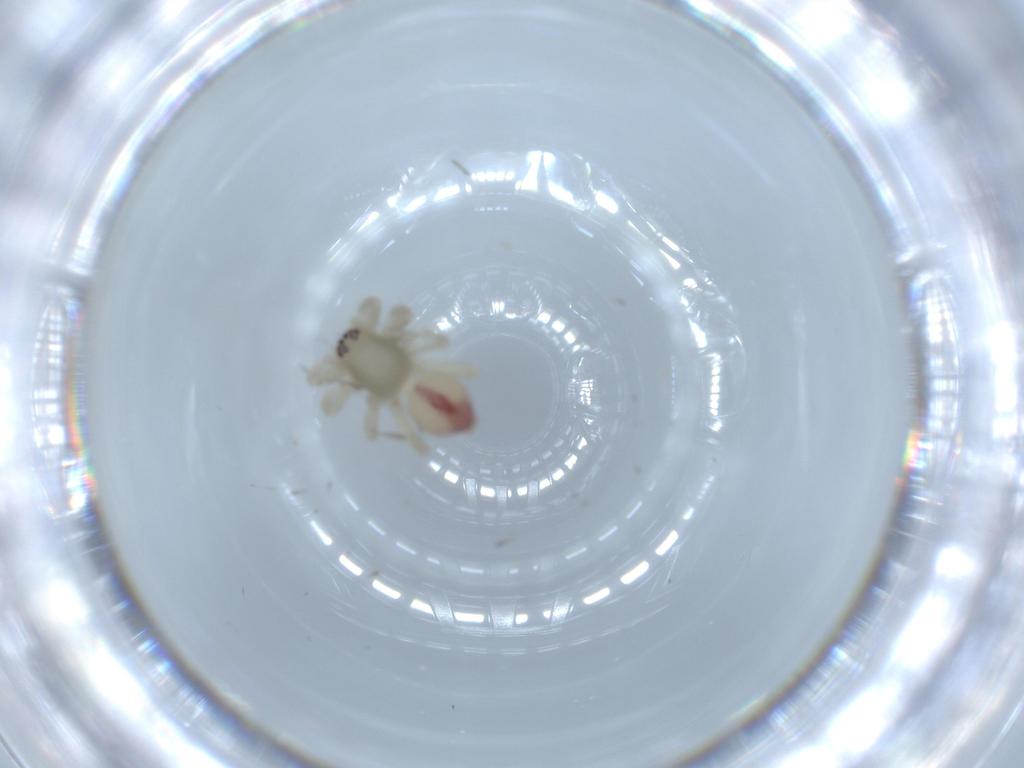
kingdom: Animalia
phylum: Arthropoda
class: Arachnida
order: Araneae
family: Clubionidae
